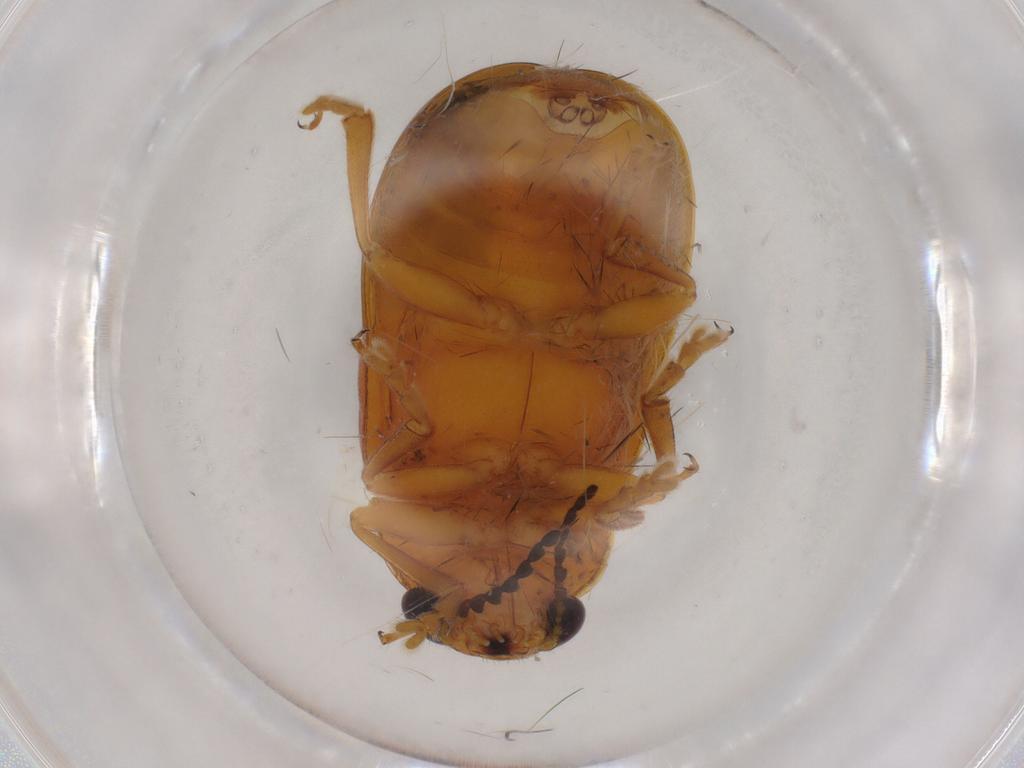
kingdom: Animalia
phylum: Arthropoda
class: Insecta
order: Coleoptera
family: Chrysomelidae
